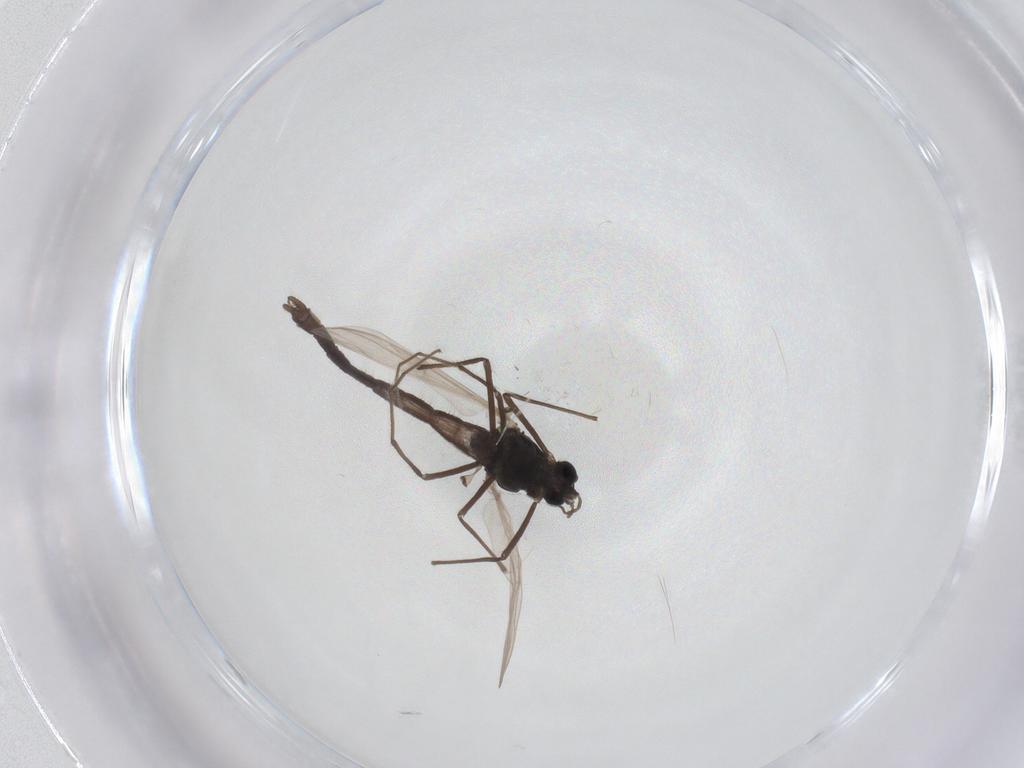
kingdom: Animalia
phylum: Arthropoda
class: Insecta
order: Diptera
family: Chironomidae
